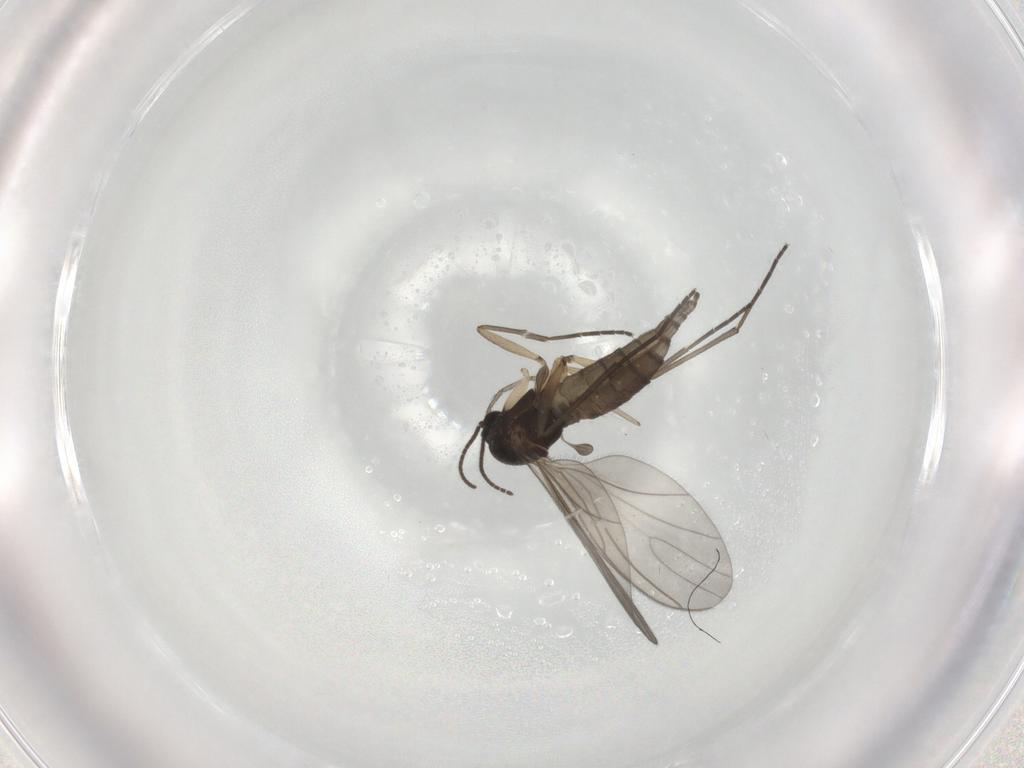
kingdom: Animalia
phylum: Arthropoda
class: Insecta
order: Diptera
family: Sciaridae
